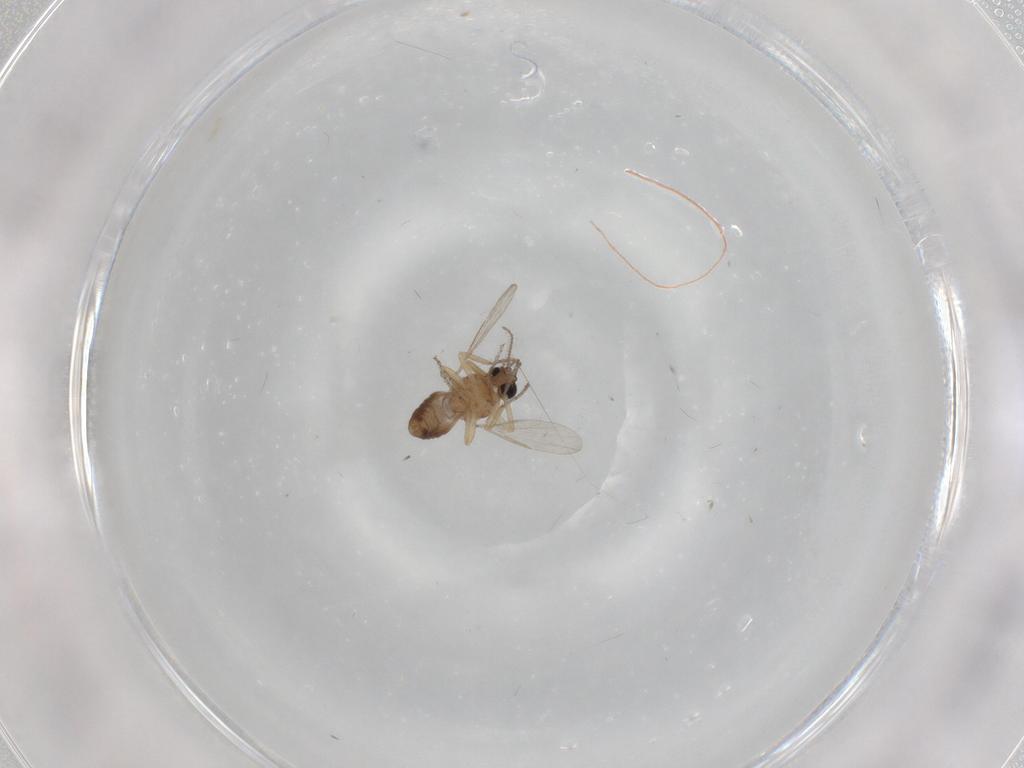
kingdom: Animalia
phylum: Arthropoda
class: Insecta
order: Diptera
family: Ceratopogonidae
